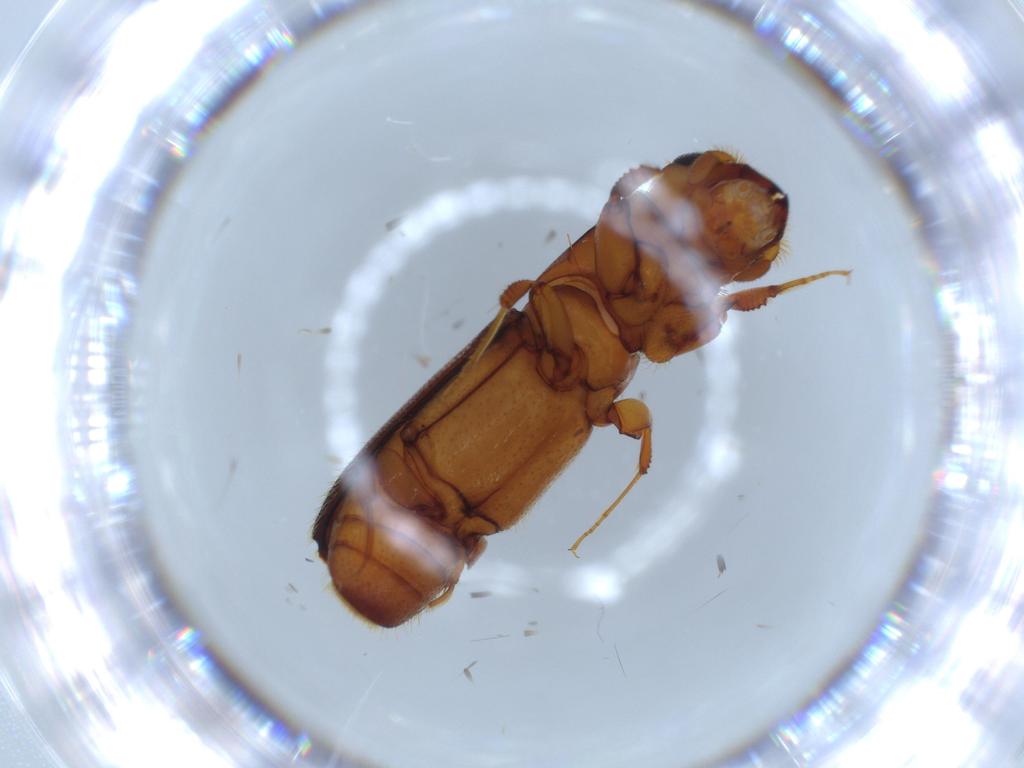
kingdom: Animalia
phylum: Arthropoda
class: Insecta
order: Coleoptera
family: Curculionidae
